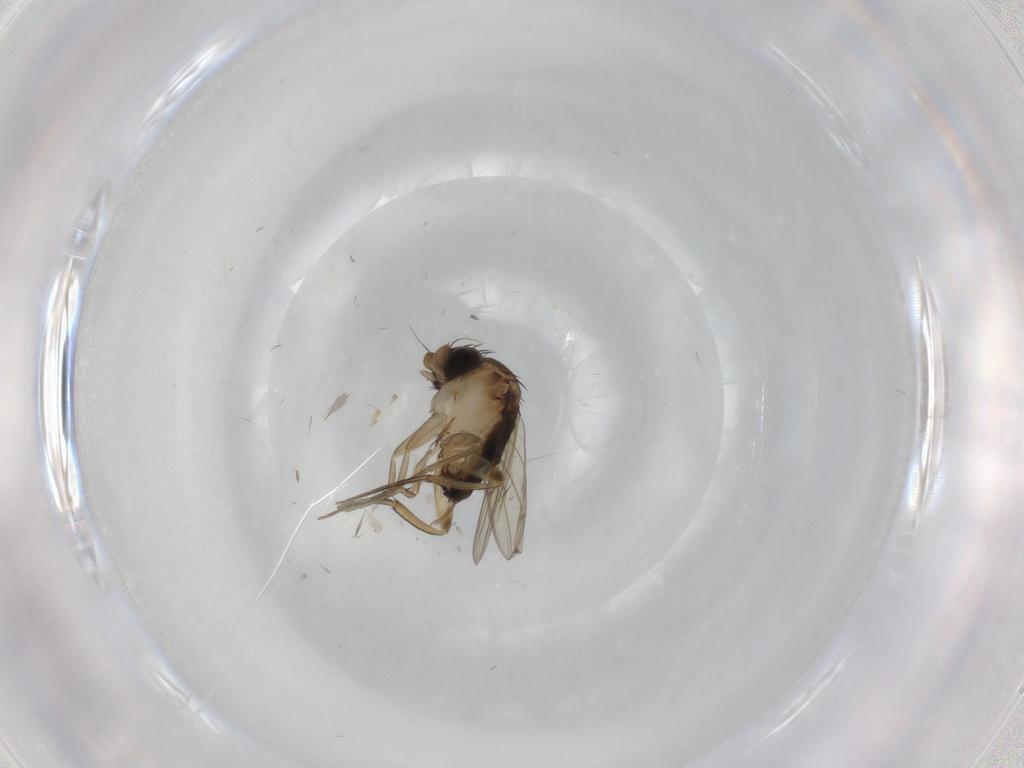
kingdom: Animalia
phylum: Arthropoda
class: Insecta
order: Diptera
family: Phoridae
